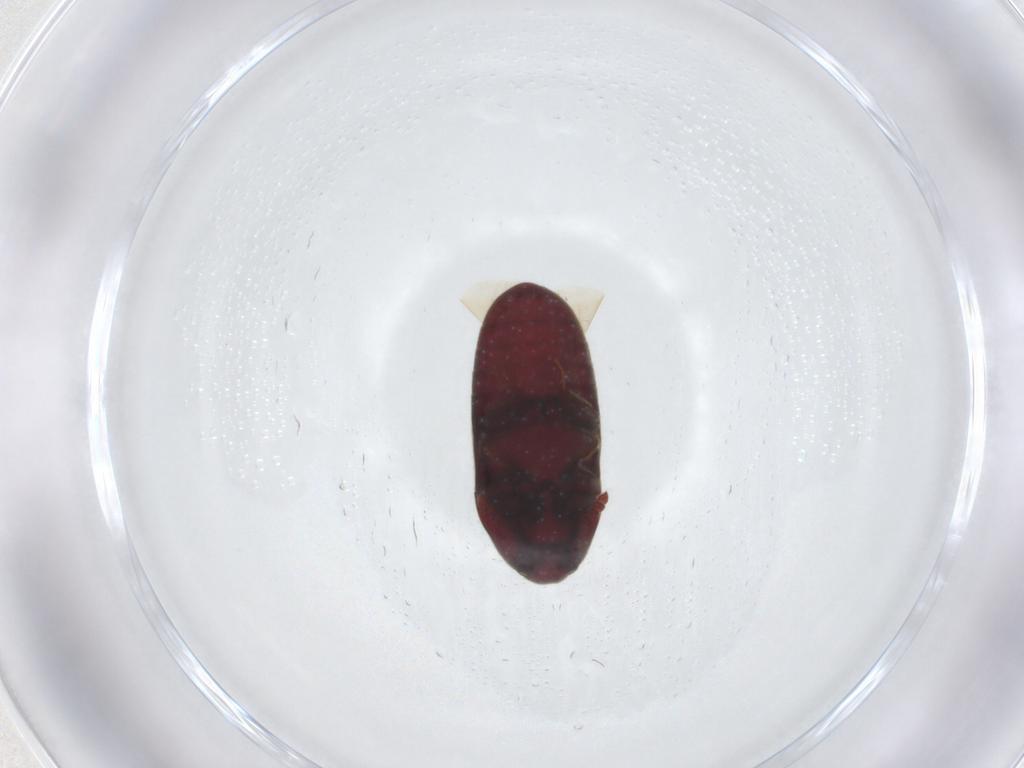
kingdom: Animalia
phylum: Arthropoda
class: Insecta
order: Coleoptera
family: Throscidae
